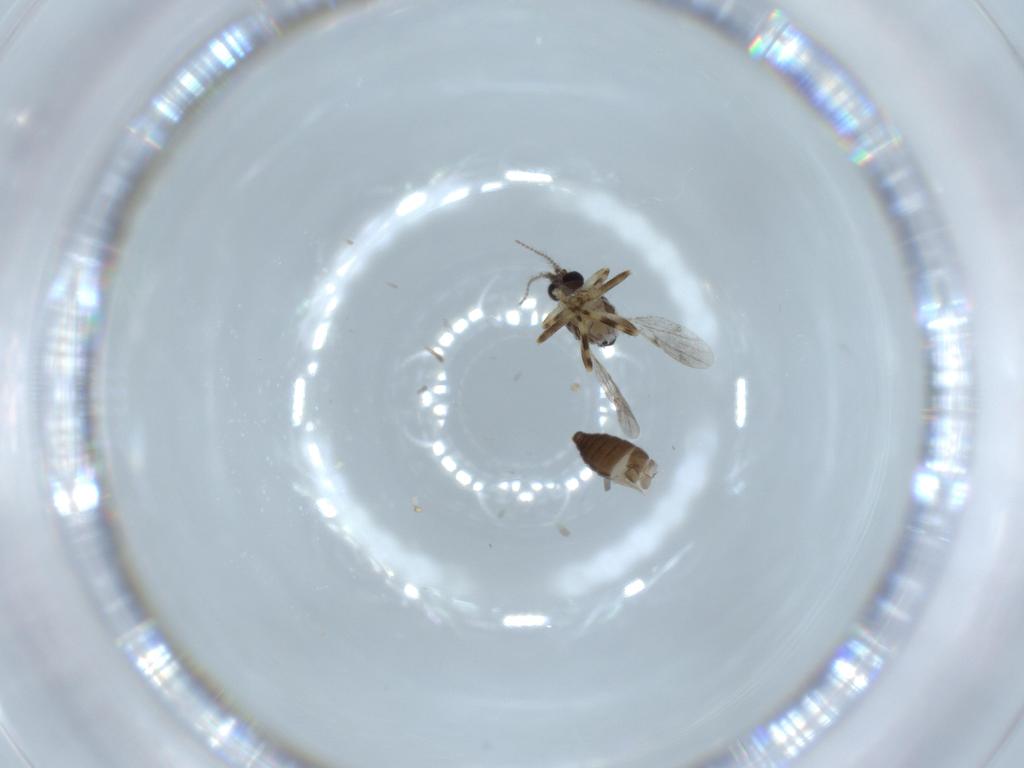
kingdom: Animalia
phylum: Arthropoda
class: Insecta
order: Diptera
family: Ceratopogonidae
